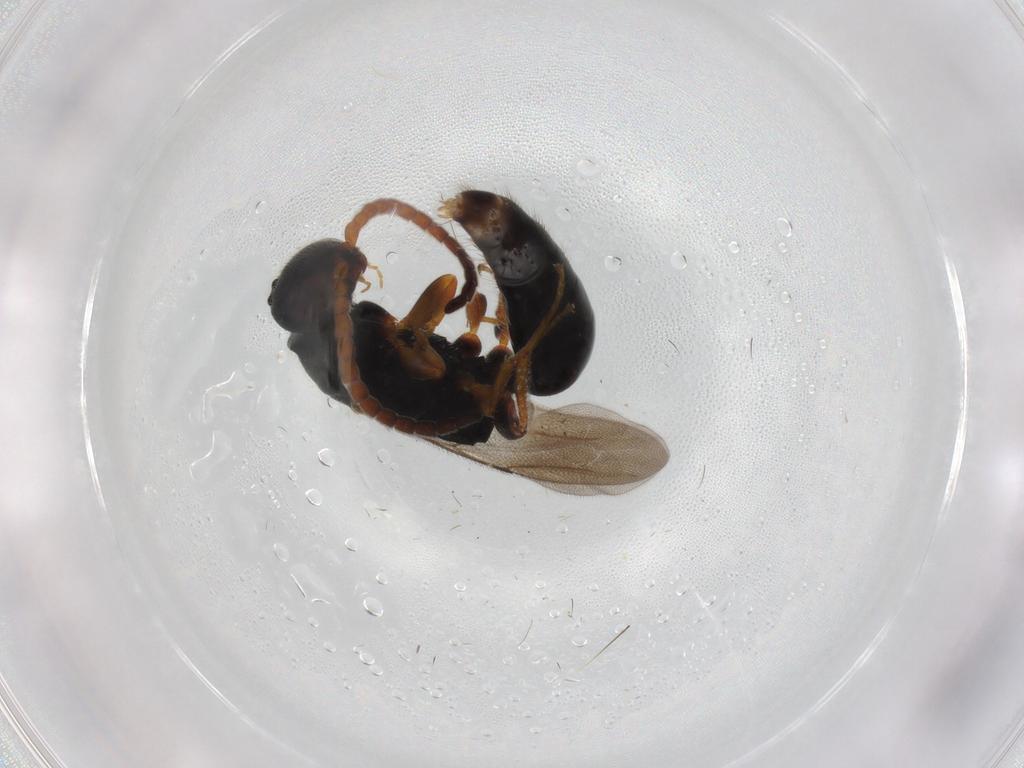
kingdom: Animalia
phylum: Arthropoda
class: Insecta
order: Hymenoptera
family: Bethylidae
